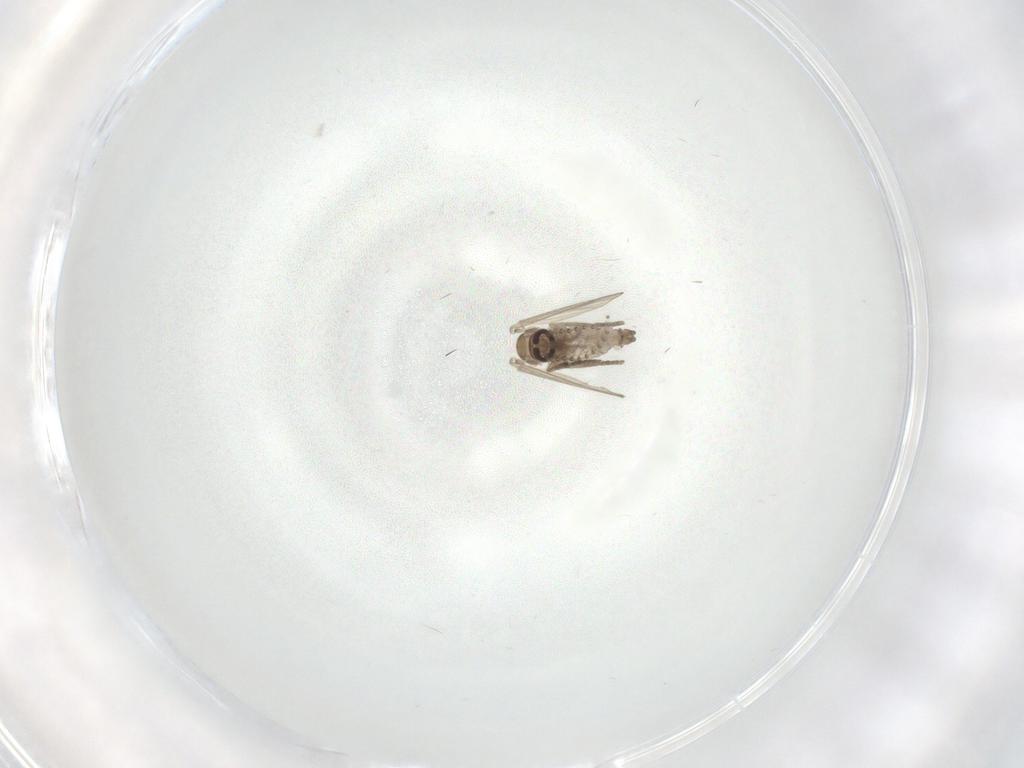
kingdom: Animalia
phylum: Arthropoda
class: Insecta
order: Diptera
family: Psychodidae
